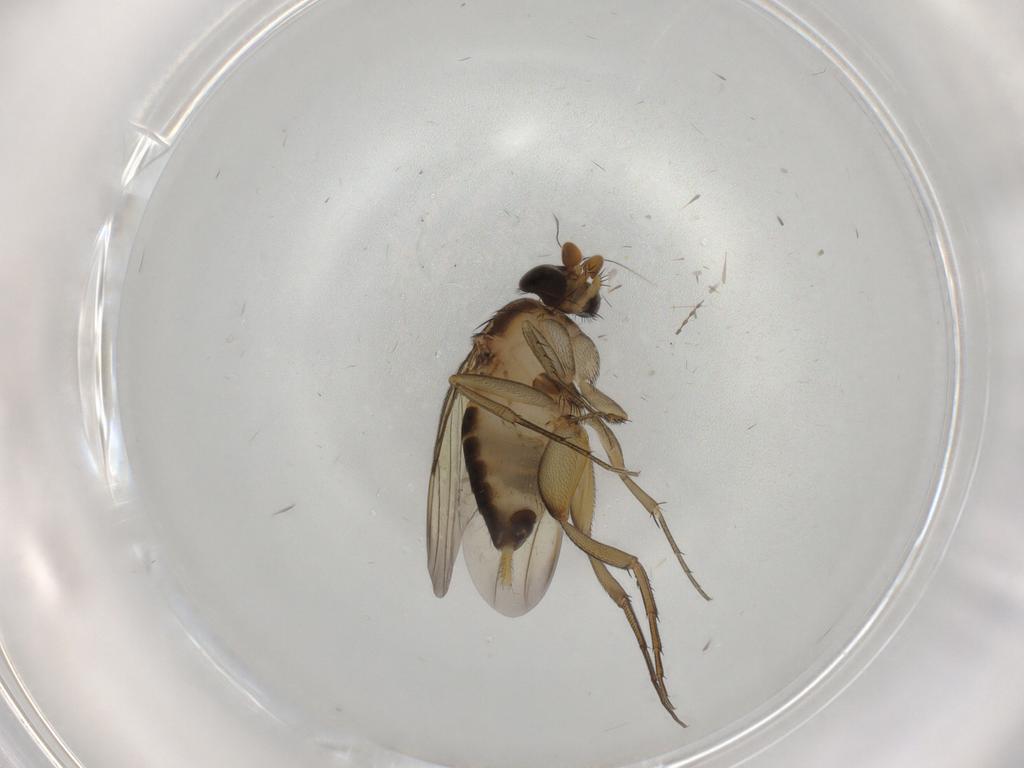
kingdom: Animalia
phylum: Arthropoda
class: Insecta
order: Diptera
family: Phoridae
